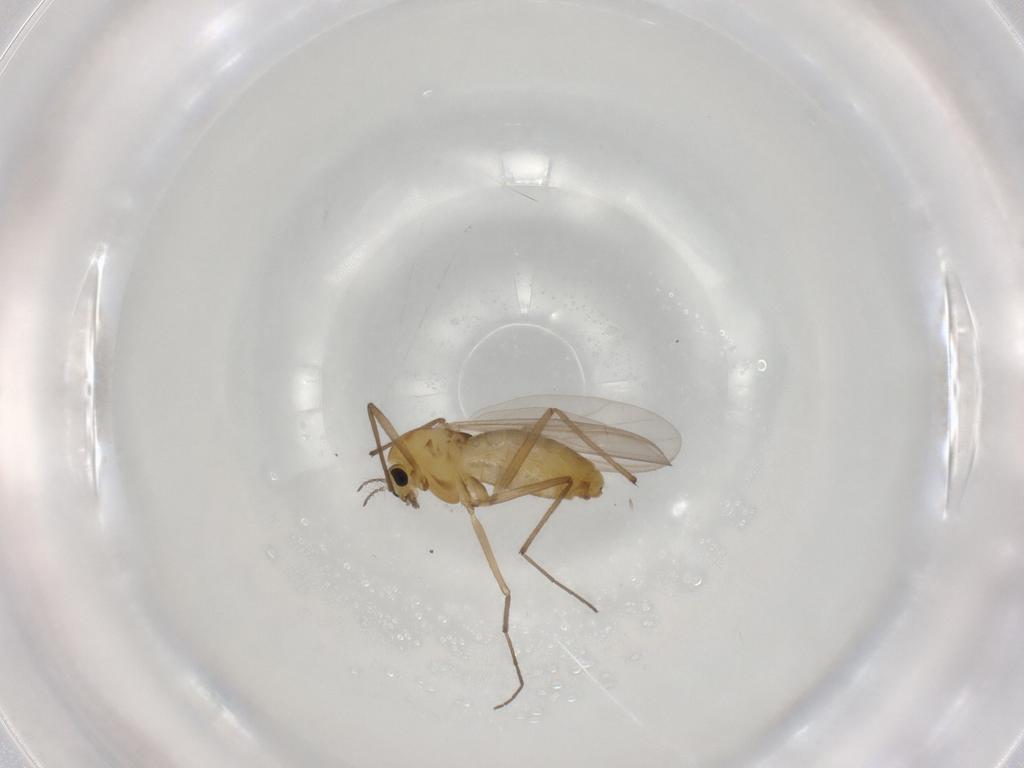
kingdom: Animalia
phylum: Arthropoda
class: Insecta
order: Diptera
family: Chironomidae
